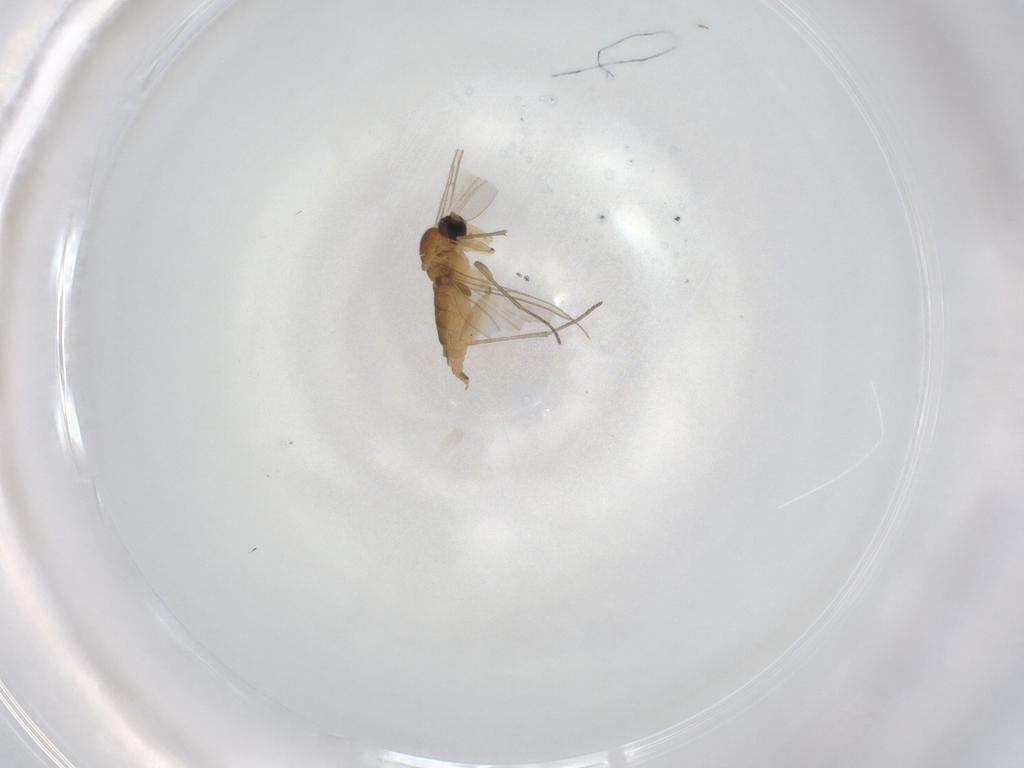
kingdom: Animalia
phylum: Arthropoda
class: Insecta
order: Diptera
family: Sciaridae
